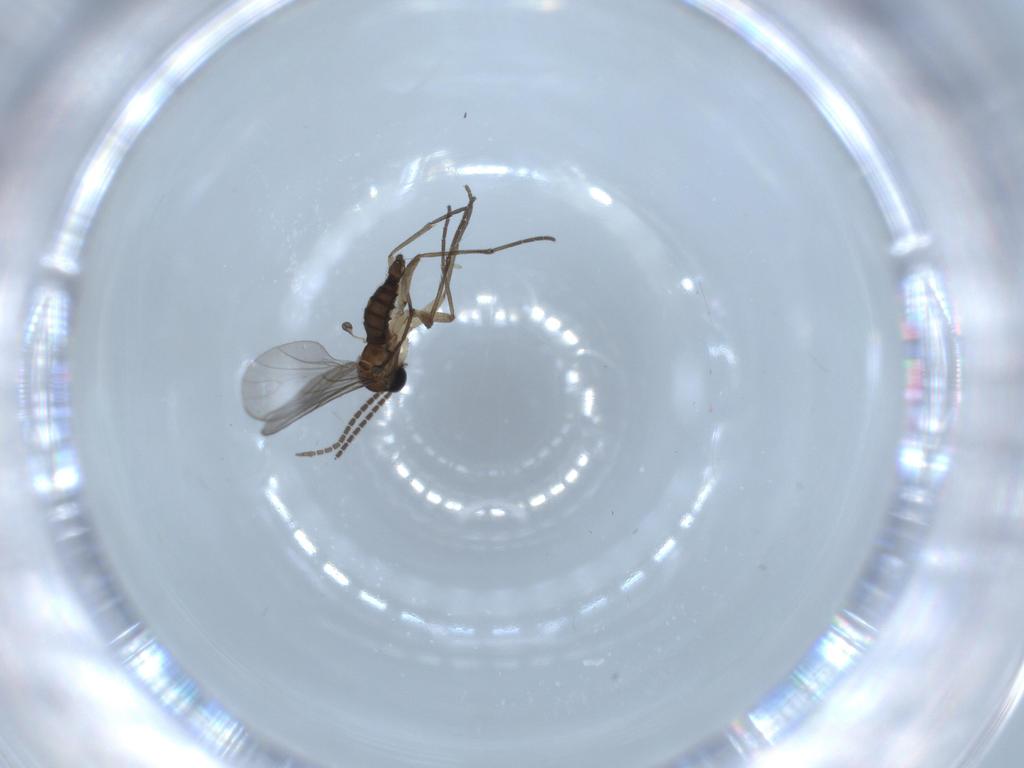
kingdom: Animalia
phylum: Arthropoda
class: Insecta
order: Diptera
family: Sciaridae
